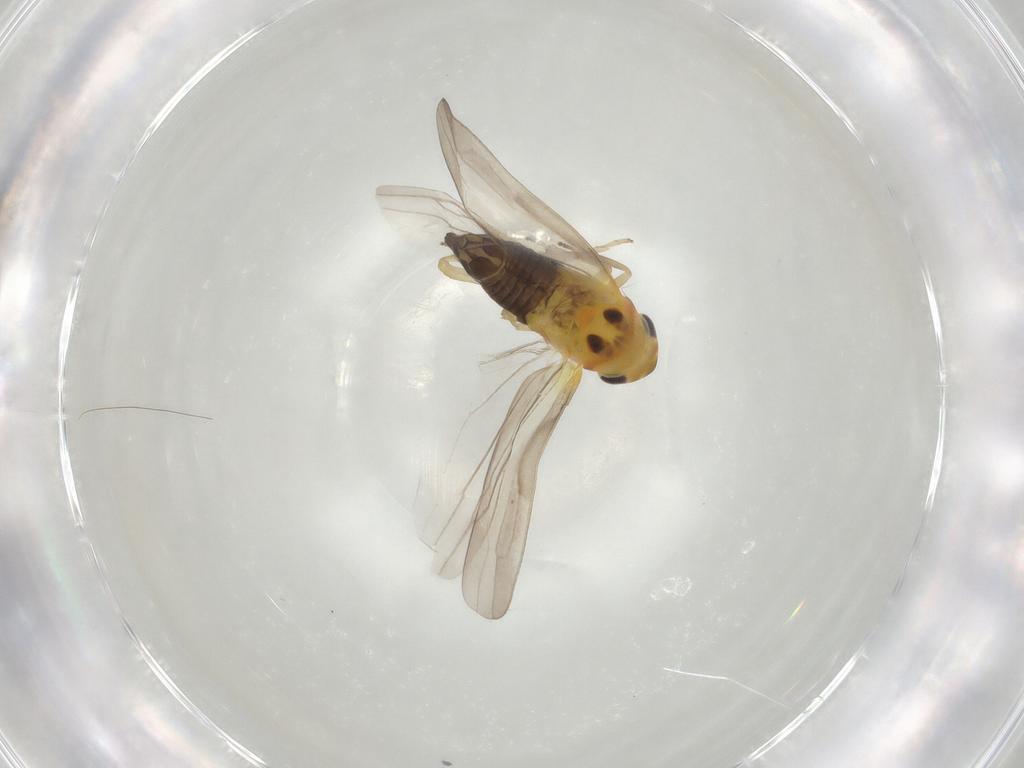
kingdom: Animalia
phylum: Arthropoda
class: Insecta
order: Hemiptera
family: Cicadellidae
